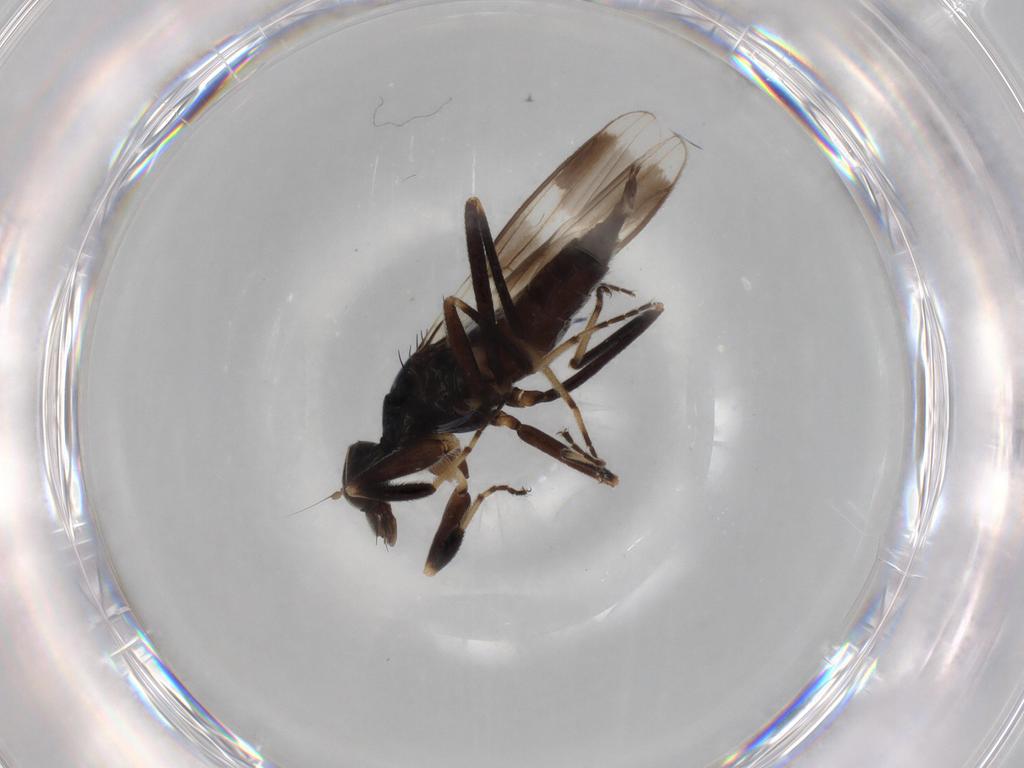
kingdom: Animalia
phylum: Arthropoda
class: Insecta
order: Diptera
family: Hybotidae
